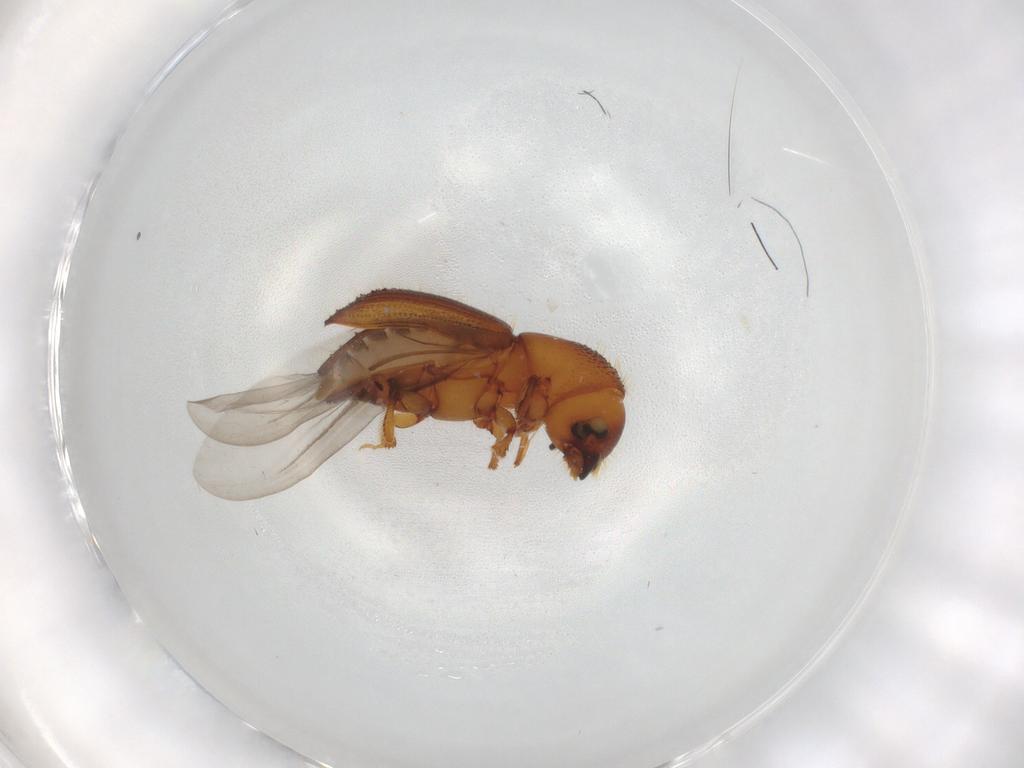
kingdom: Animalia
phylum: Arthropoda
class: Insecta
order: Coleoptera
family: Curculionidae
